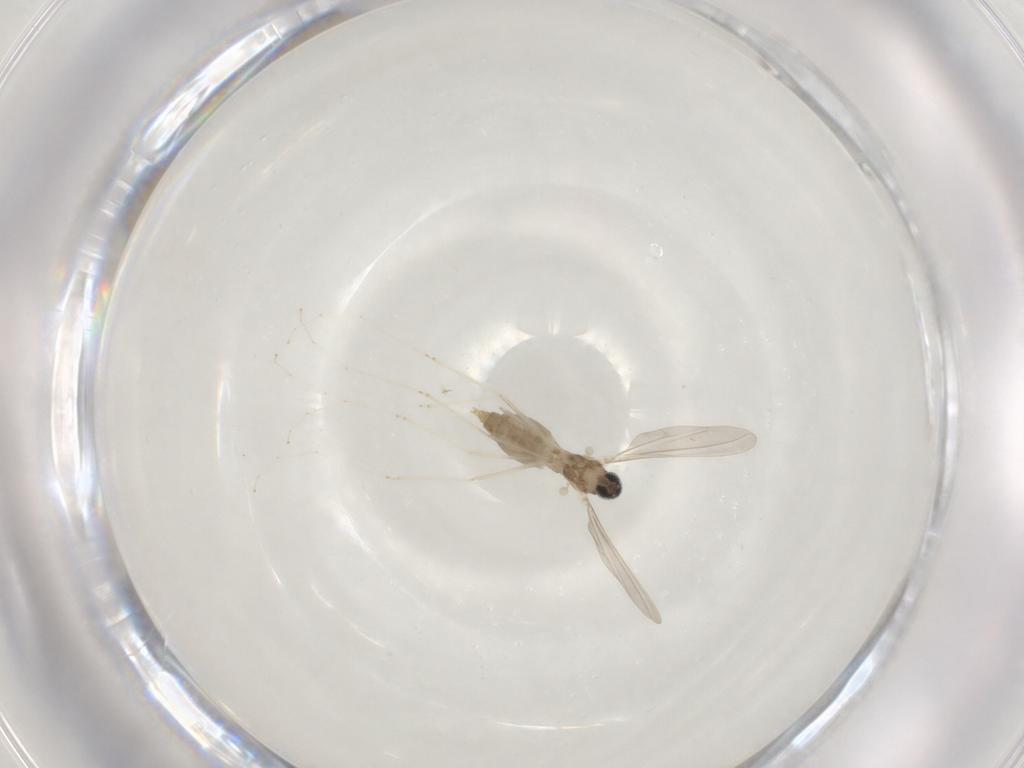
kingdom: Animalia
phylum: Arthropoda
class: Insecta
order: Diptera
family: Cecidomyiidae
